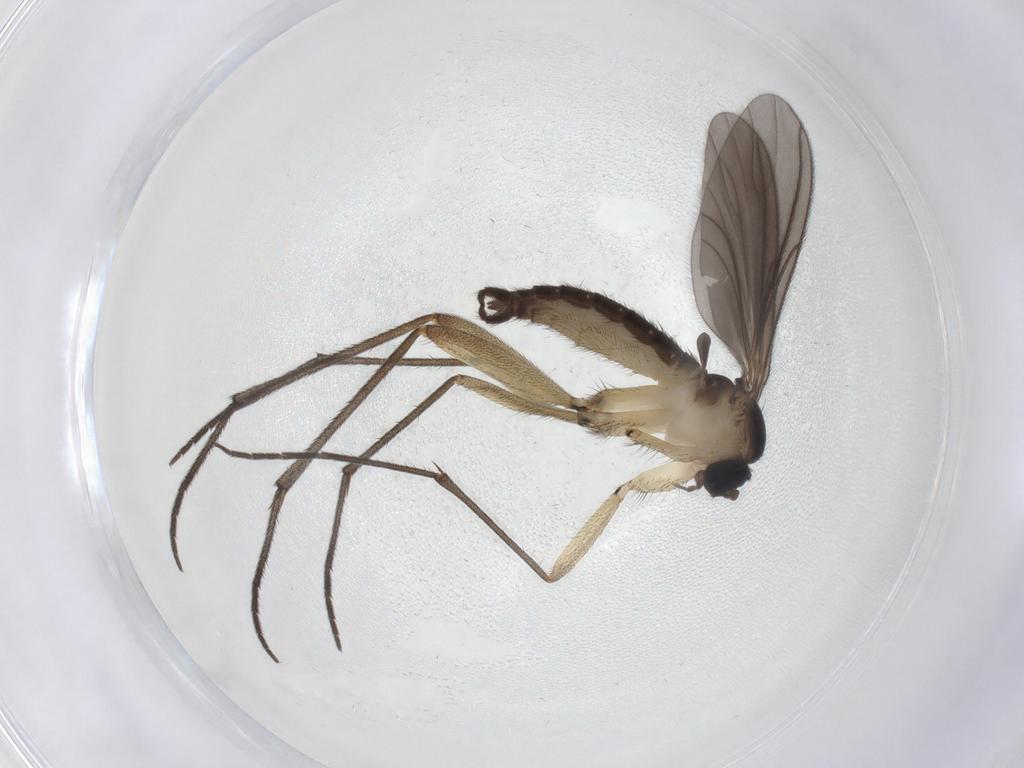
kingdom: Animalia
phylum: Arthropoda
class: Insecta
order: Diptera
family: Sciaridae
